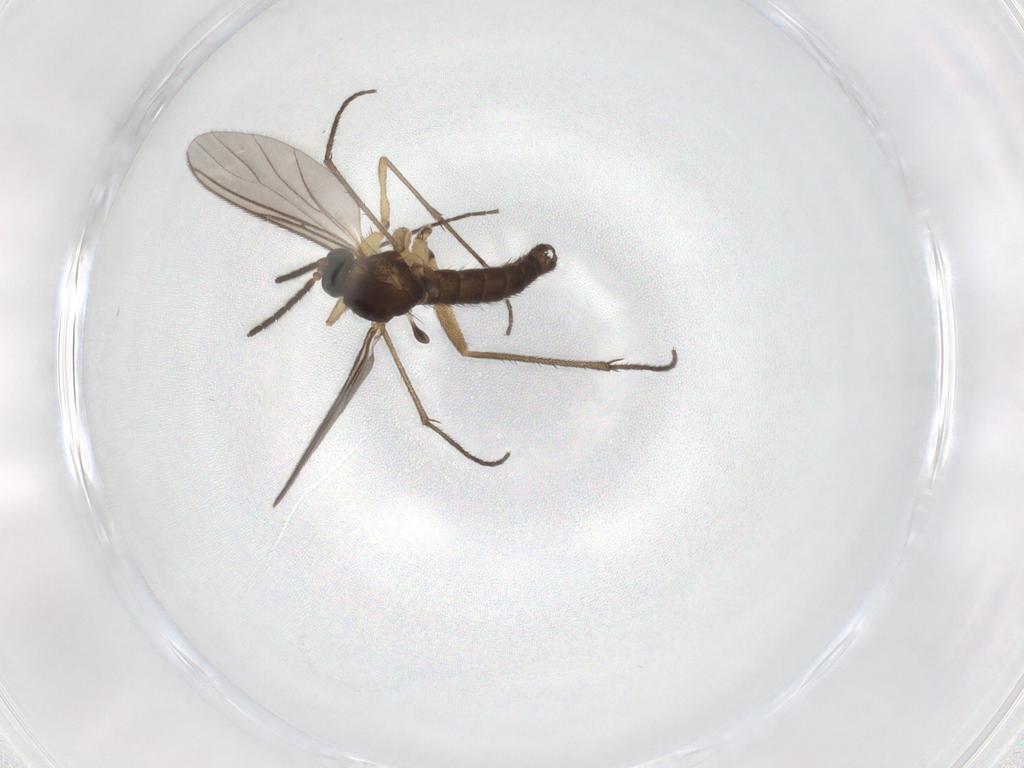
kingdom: Animalia
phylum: Arthropoda
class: Insecta
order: Diptera
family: Sciaridae
